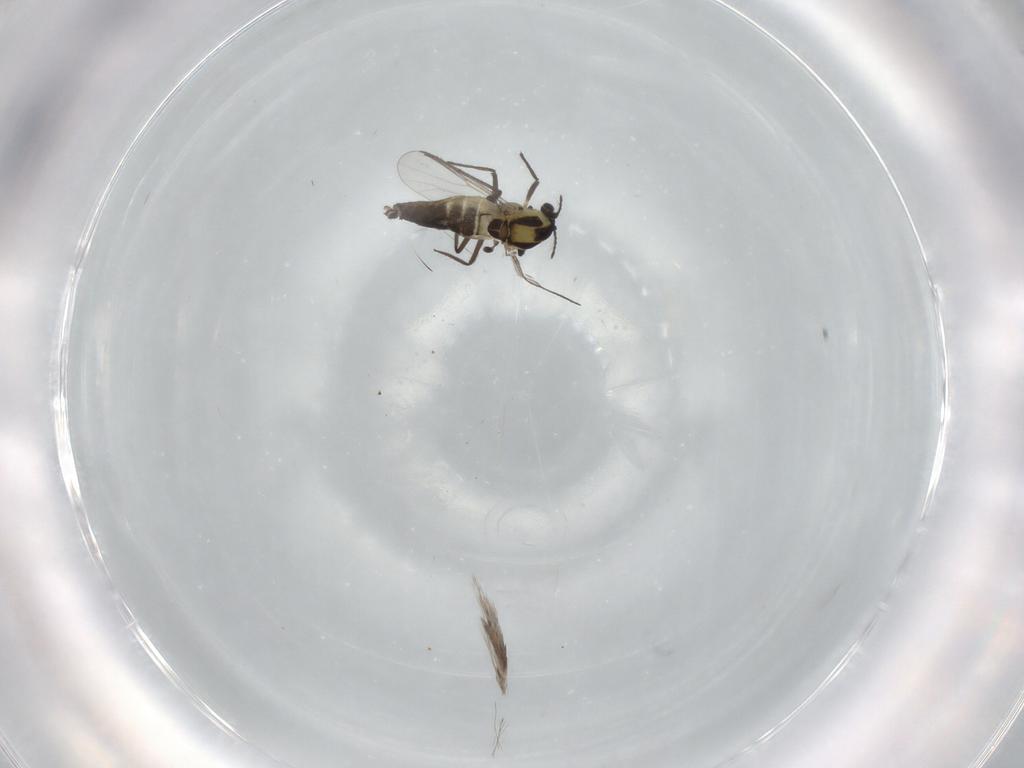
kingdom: Animalia
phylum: Arthropoda
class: Insecta
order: Diptera
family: Chironomidae
